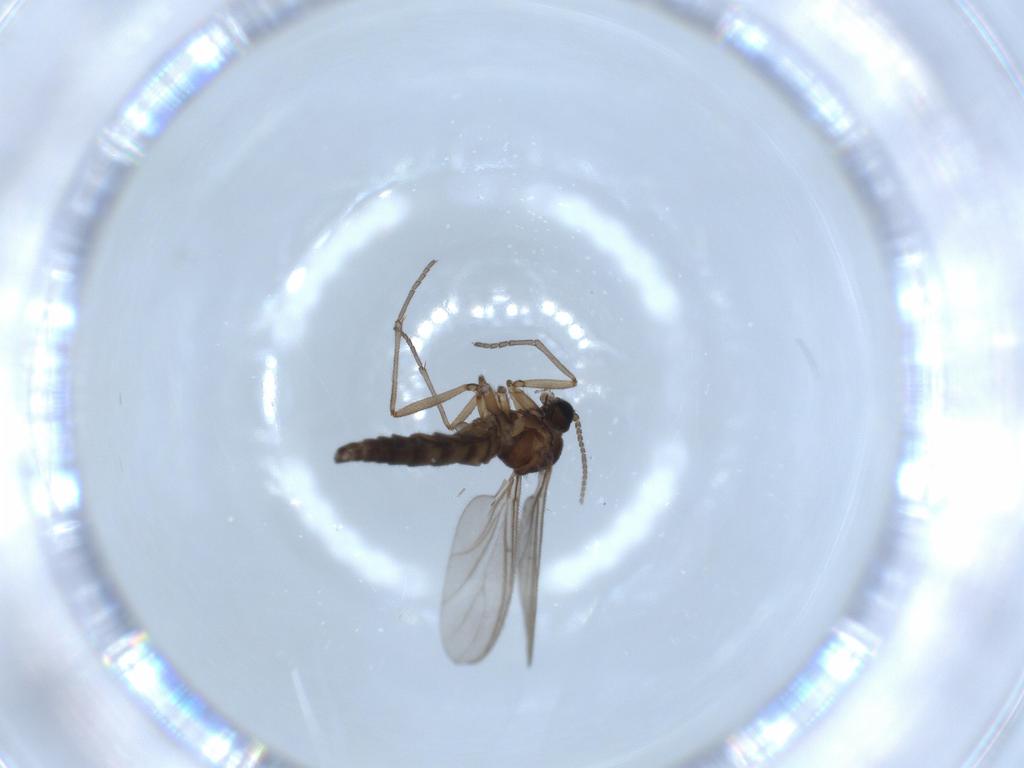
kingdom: Animalia
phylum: Arthropoda
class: Insecta
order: Diptera
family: Sciaridae
